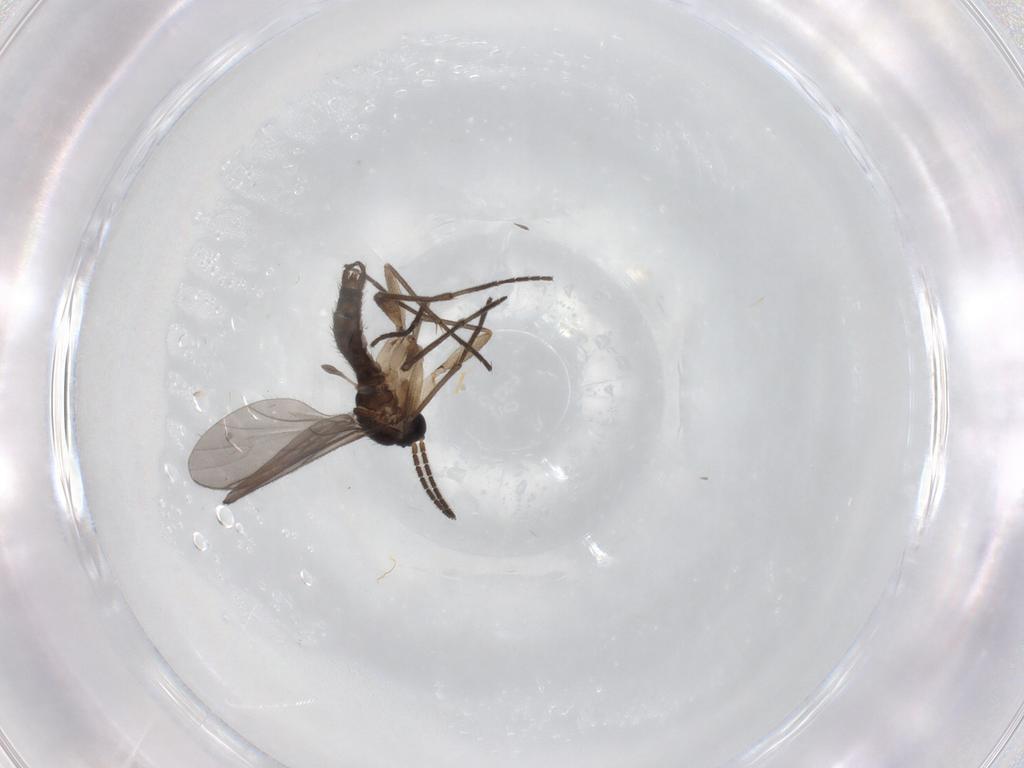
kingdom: Animalia
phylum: Arthropoda
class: Insecta
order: Diptera
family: Sciaridae
